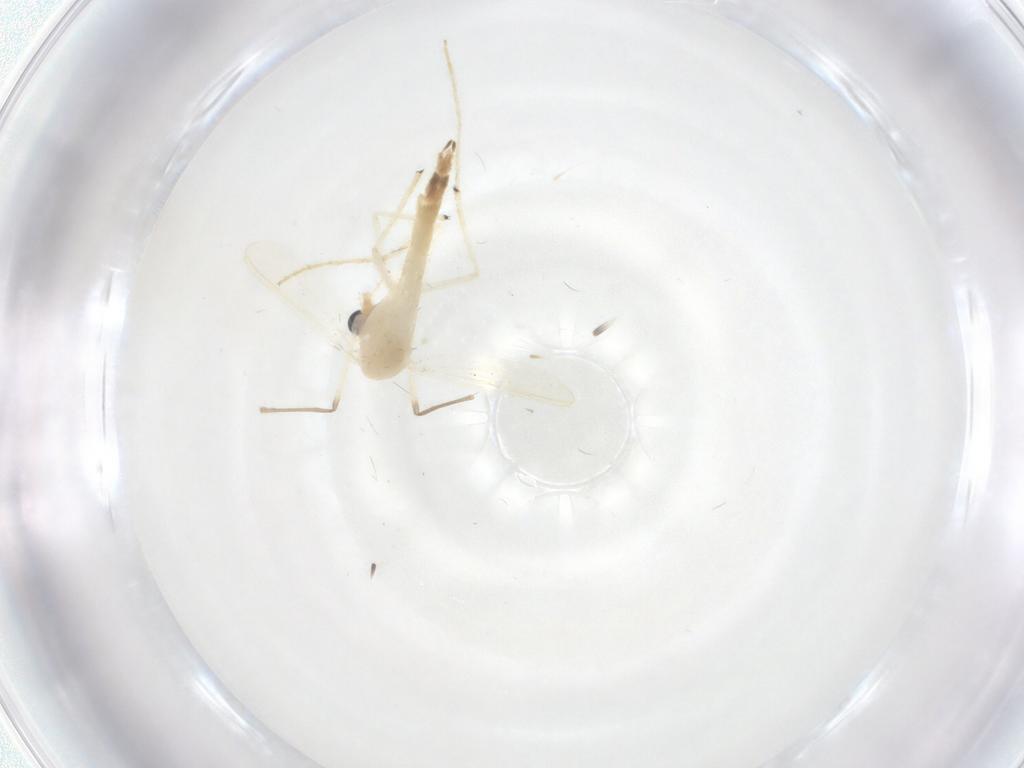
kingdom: Animalia
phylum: Arthropoda
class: Insecta
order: Diptera
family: Chironomidae
